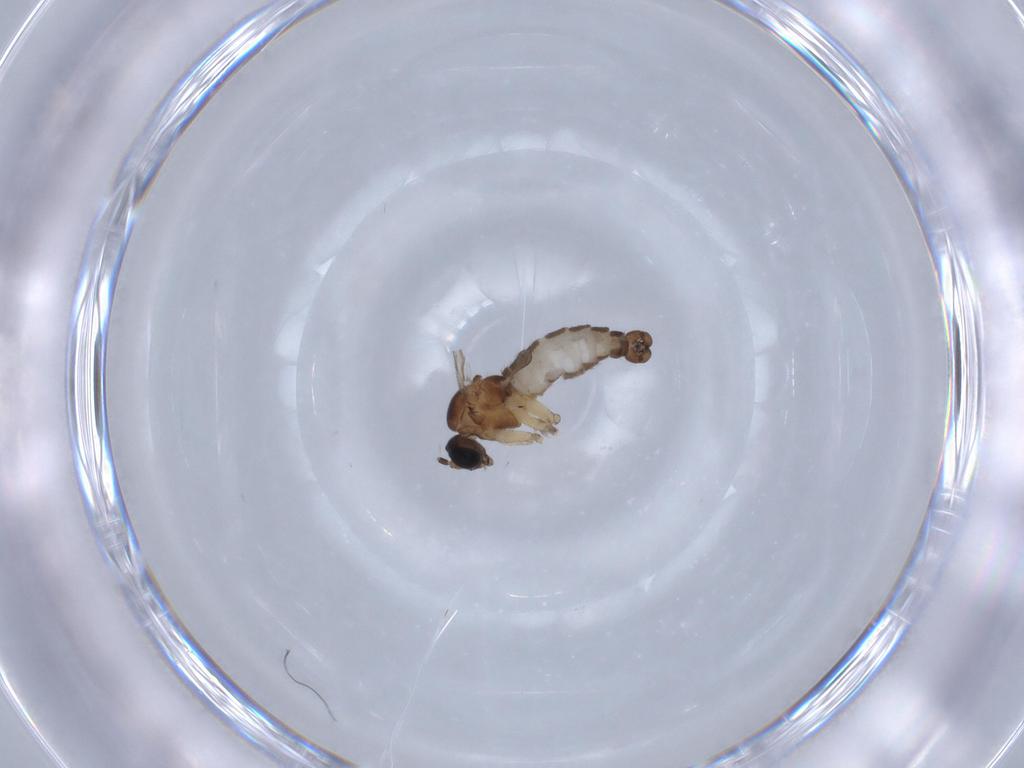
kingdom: Animalia
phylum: Arthropoda
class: Insecta
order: Diptera
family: Sciaridae
